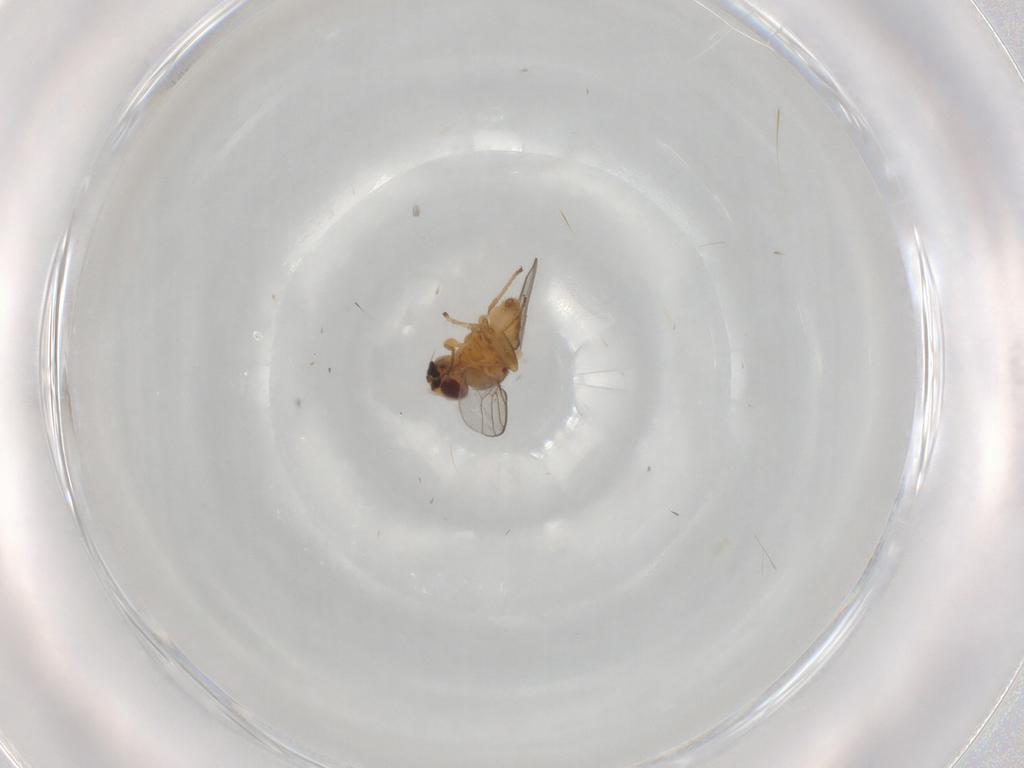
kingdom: Animalia
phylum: Arthropoda
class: Insecta
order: Diptera
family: Chloropidae
